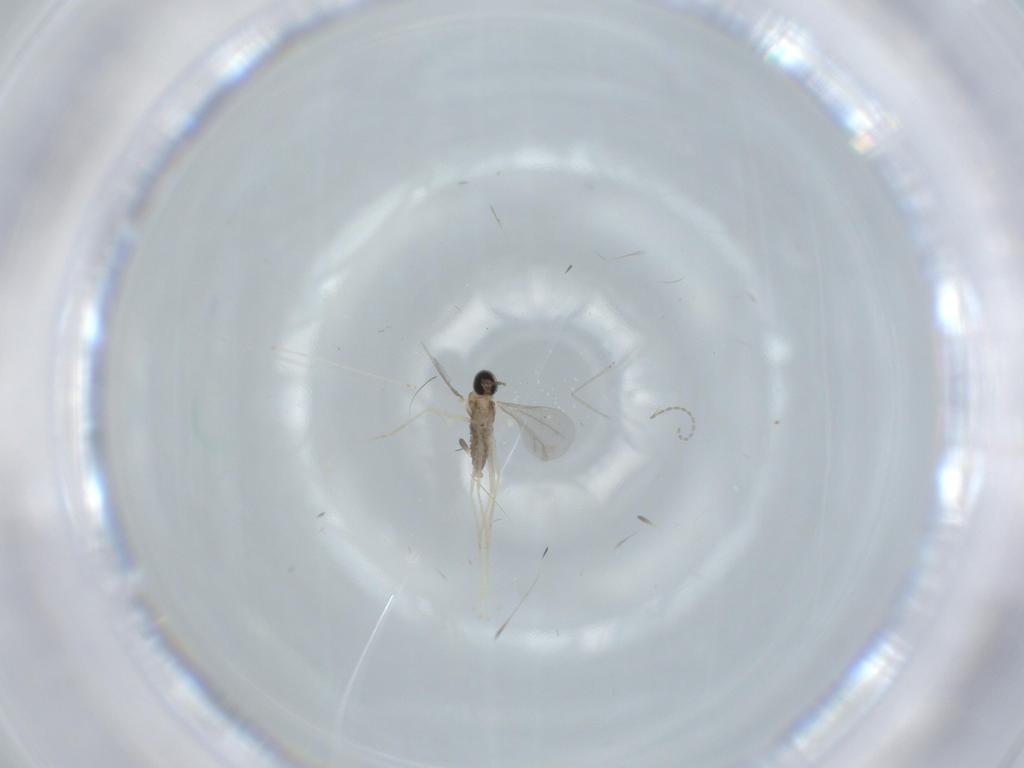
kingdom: Animalia
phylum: Arthropoda
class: Insecta
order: Diptera
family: Cecidomyiidae
